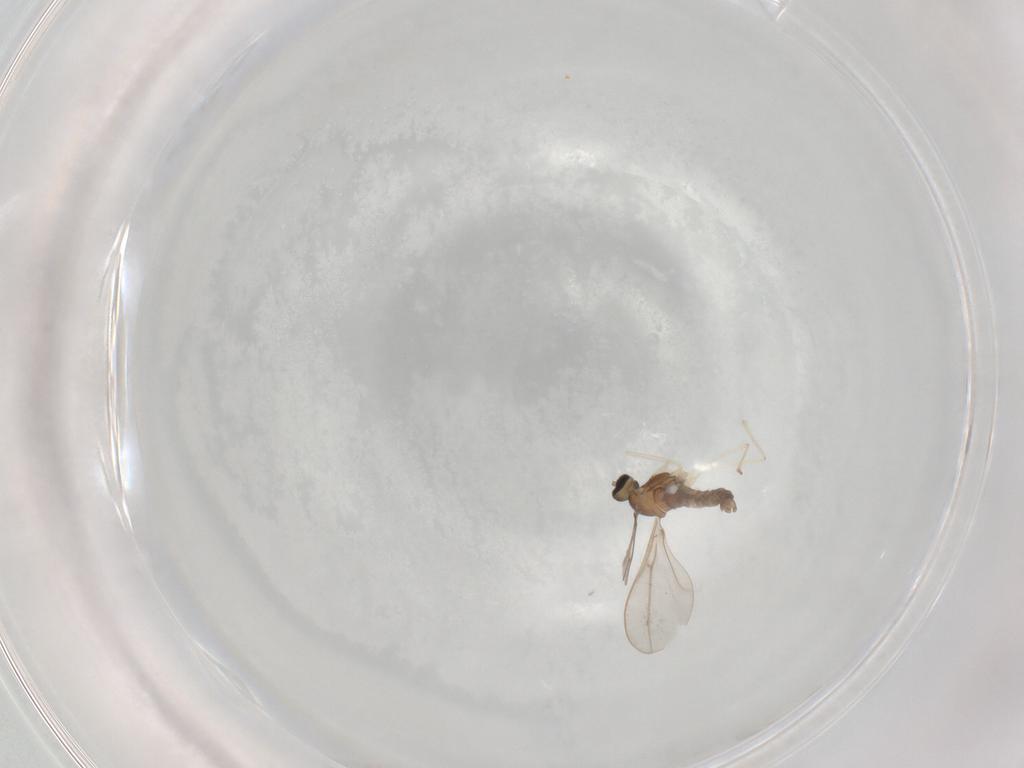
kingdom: Animalia
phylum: Arthropoda
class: Insecta
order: Diptera
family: Cecidomyiidae
